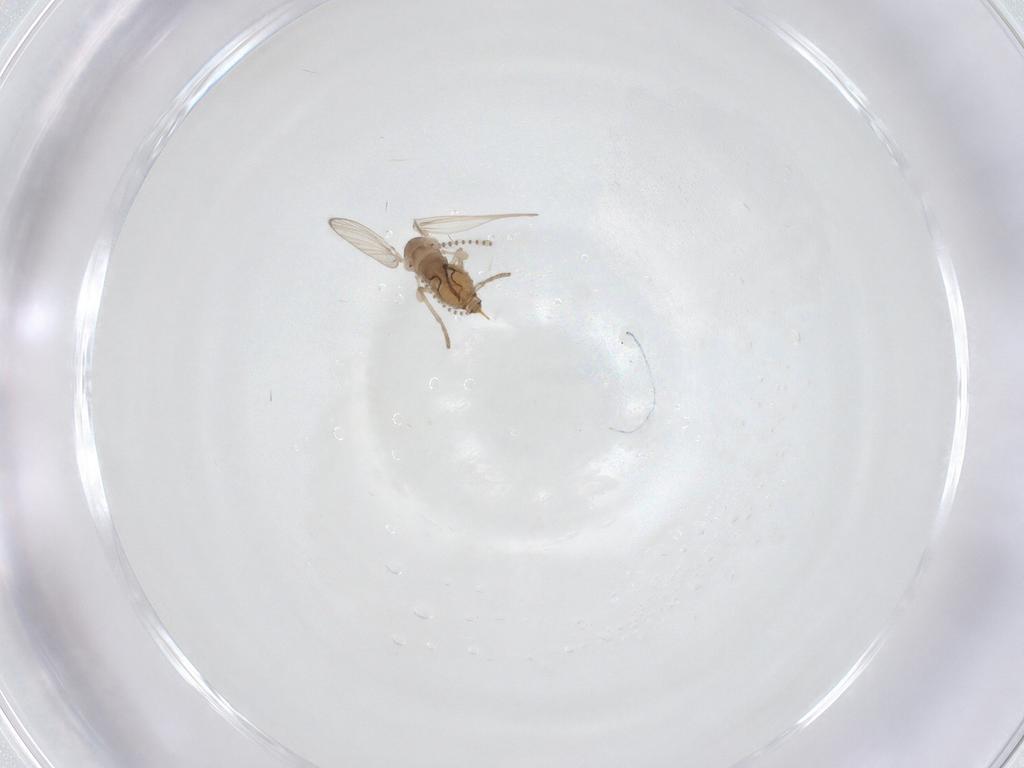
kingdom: Animalia
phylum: Arthropoda
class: Insecta
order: Diptera
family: Psychodidae
